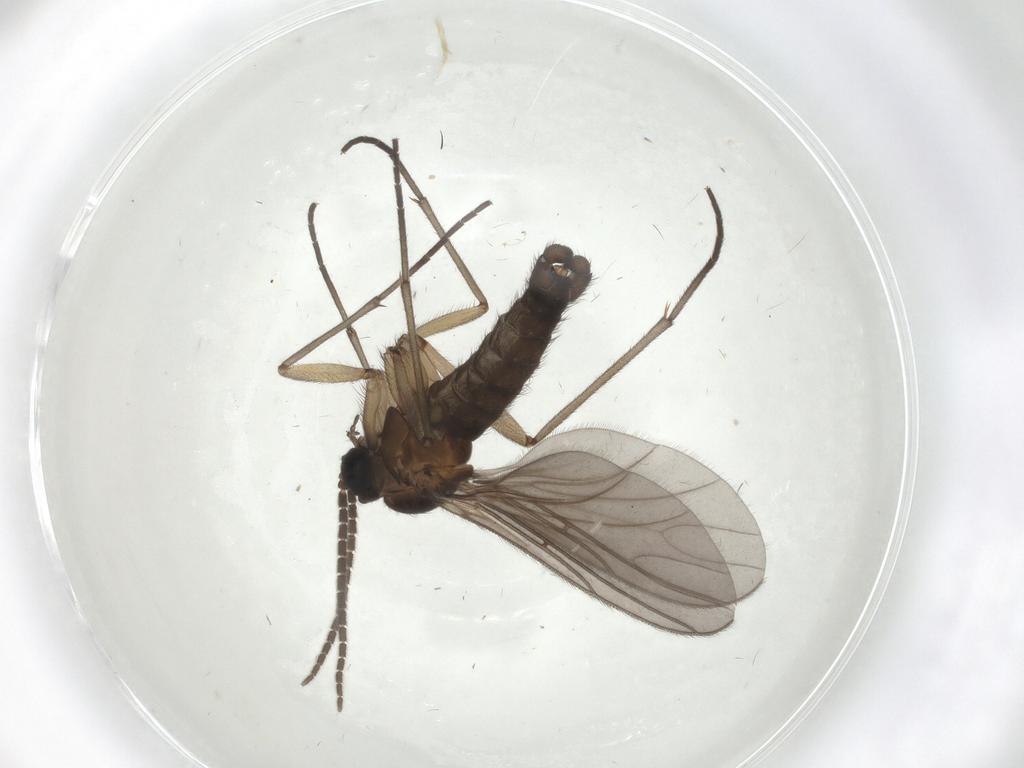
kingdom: Animalia
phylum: Arthropoda
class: Insecta
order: Diptera
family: Sciaridae
